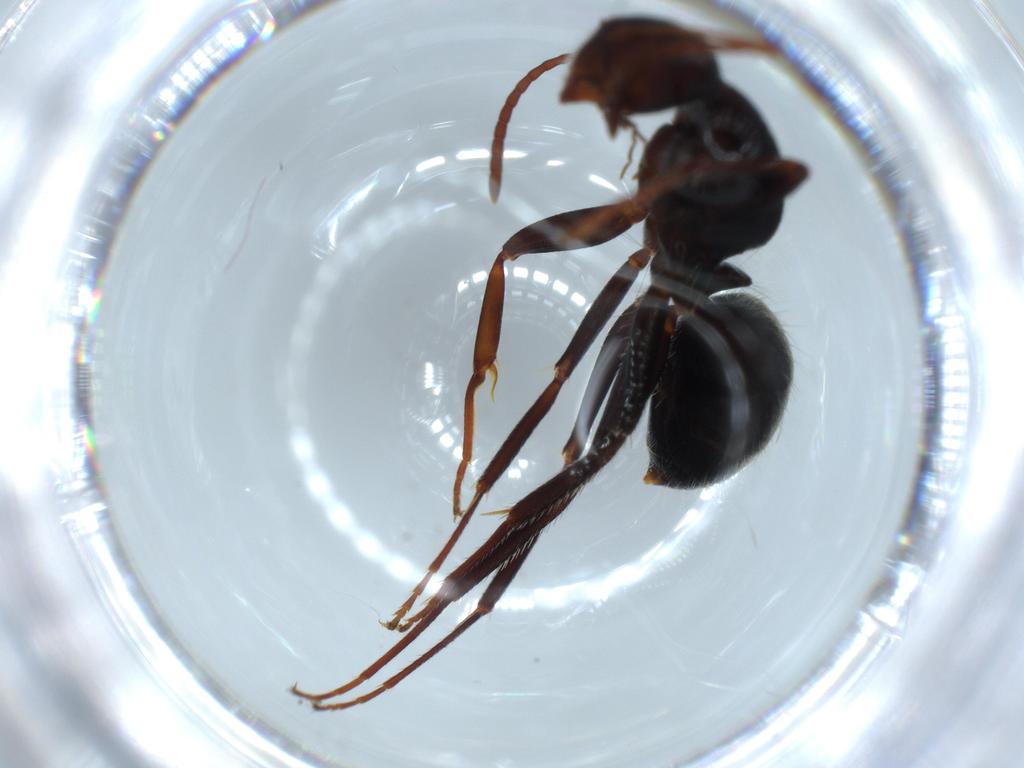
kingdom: Animalia
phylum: Arthropoda
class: Insecta
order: Hymenoptera
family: Formicidae
